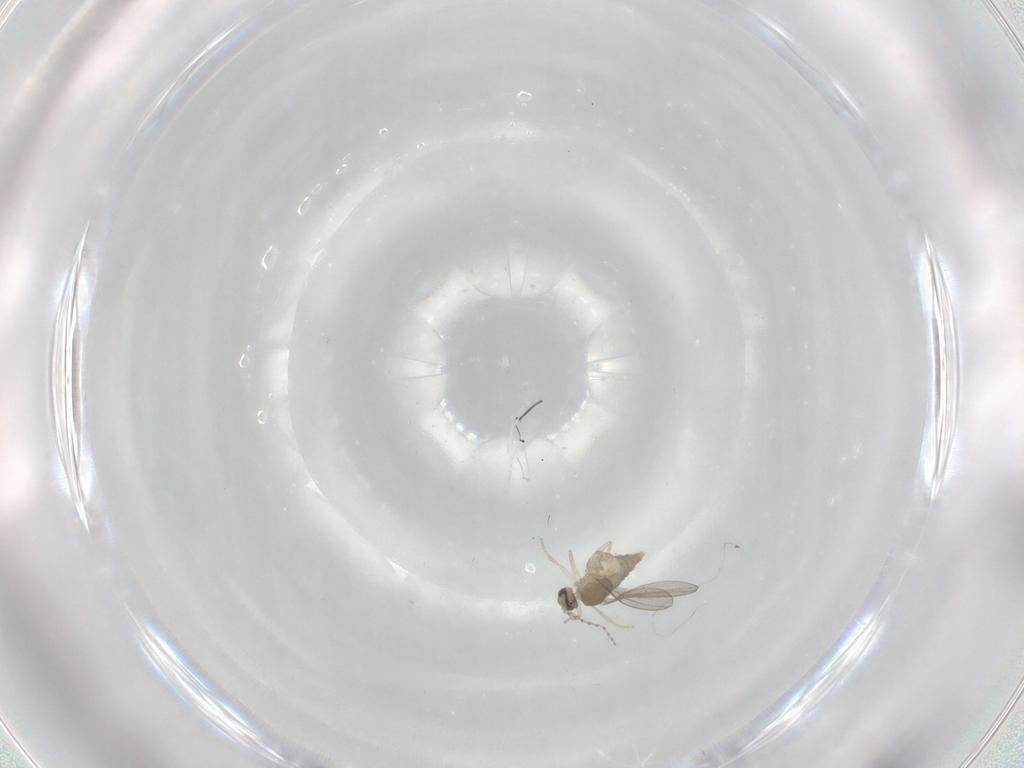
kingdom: Animalia
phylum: Arthropoda
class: Insecta
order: Diptera
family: Cecidomyiidae
